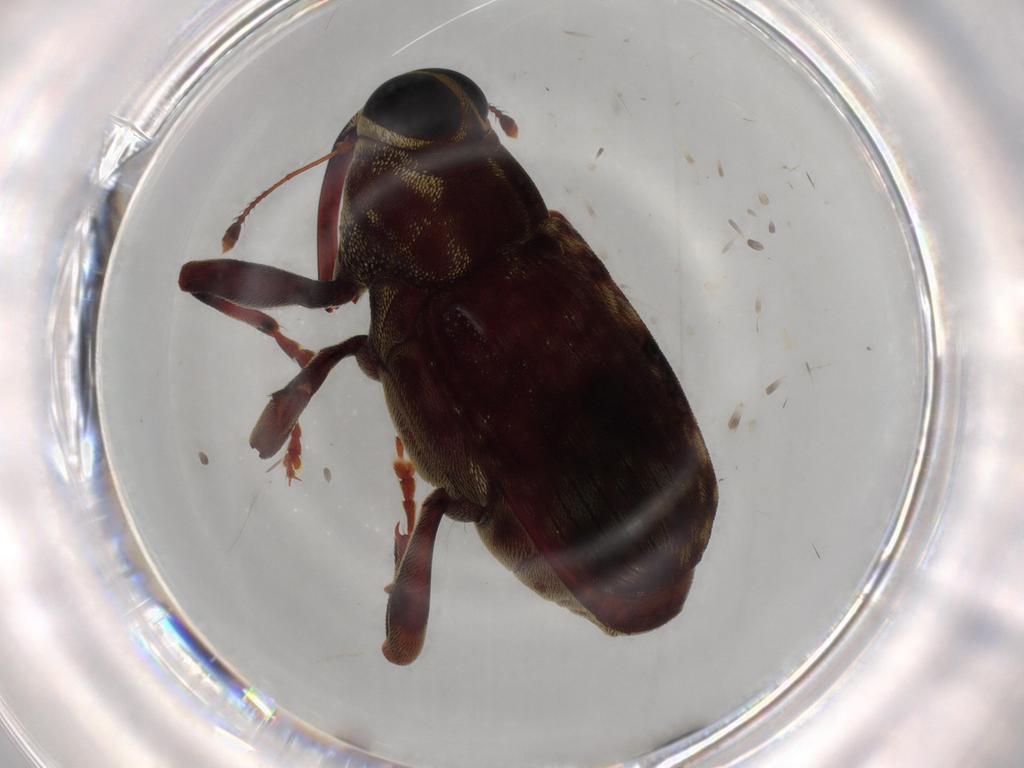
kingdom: Animalia
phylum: Arthropoda
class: Insecta
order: Coleoptera
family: Curculionidae
